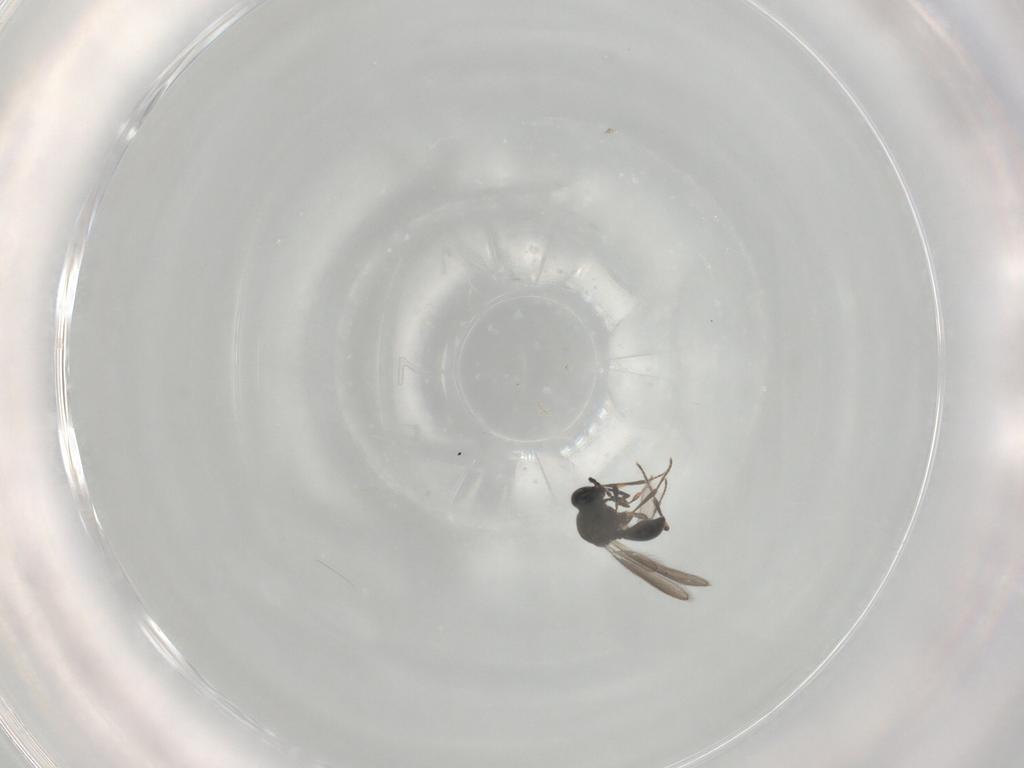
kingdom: Animalia
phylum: Arthropoda
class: Insecta
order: Hymenoptera
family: Platygastridae
